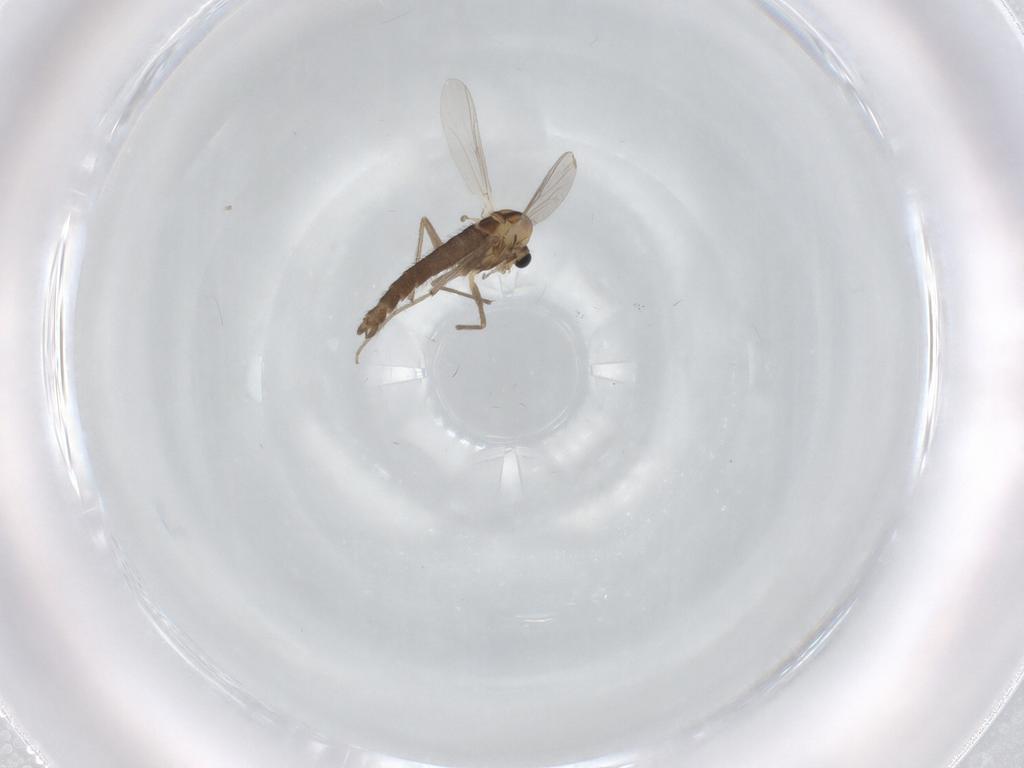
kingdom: Animalia
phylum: Arthropoda
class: Insecta
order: Diptera
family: Chironomidae
